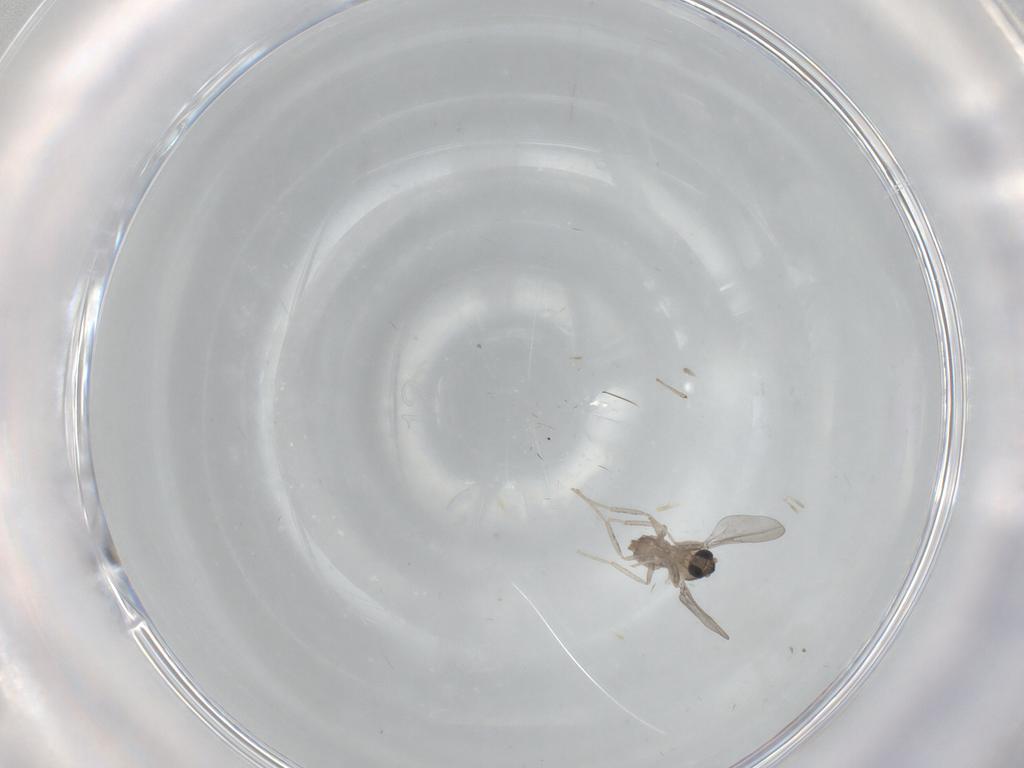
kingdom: Animalia
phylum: Arthropoda
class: Insecta
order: Diptera
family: Cecidomyiidae
